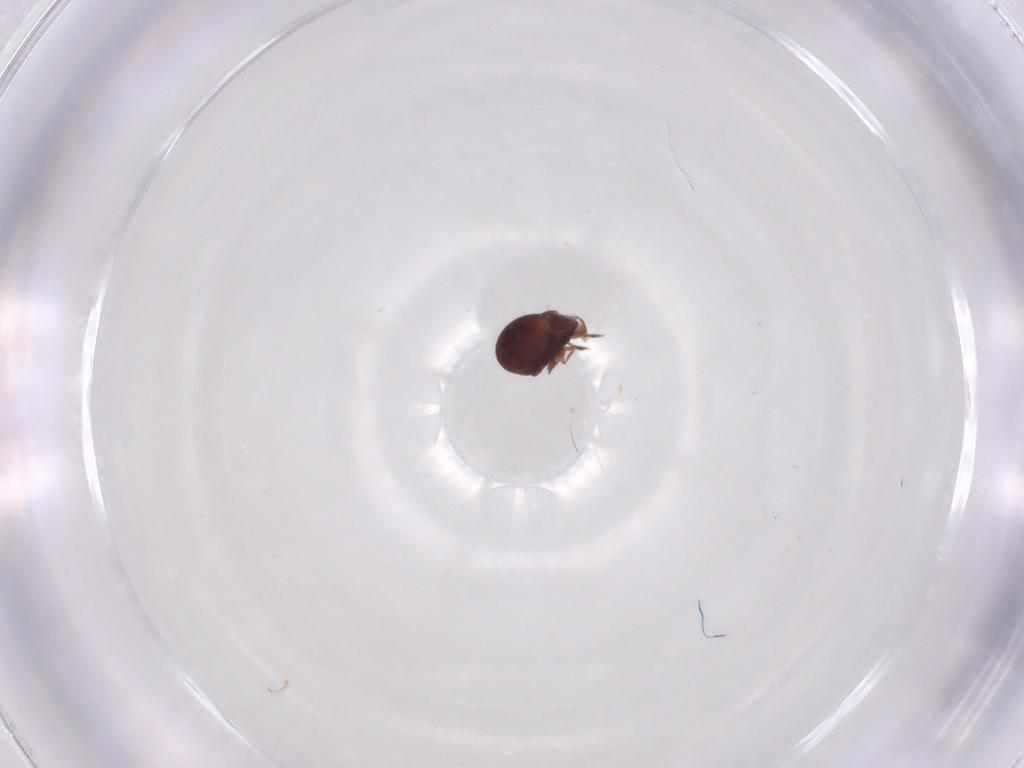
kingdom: Animalia
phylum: Arthropoda
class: Arachnida
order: Sarcoptiformes
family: Humerobatidae
